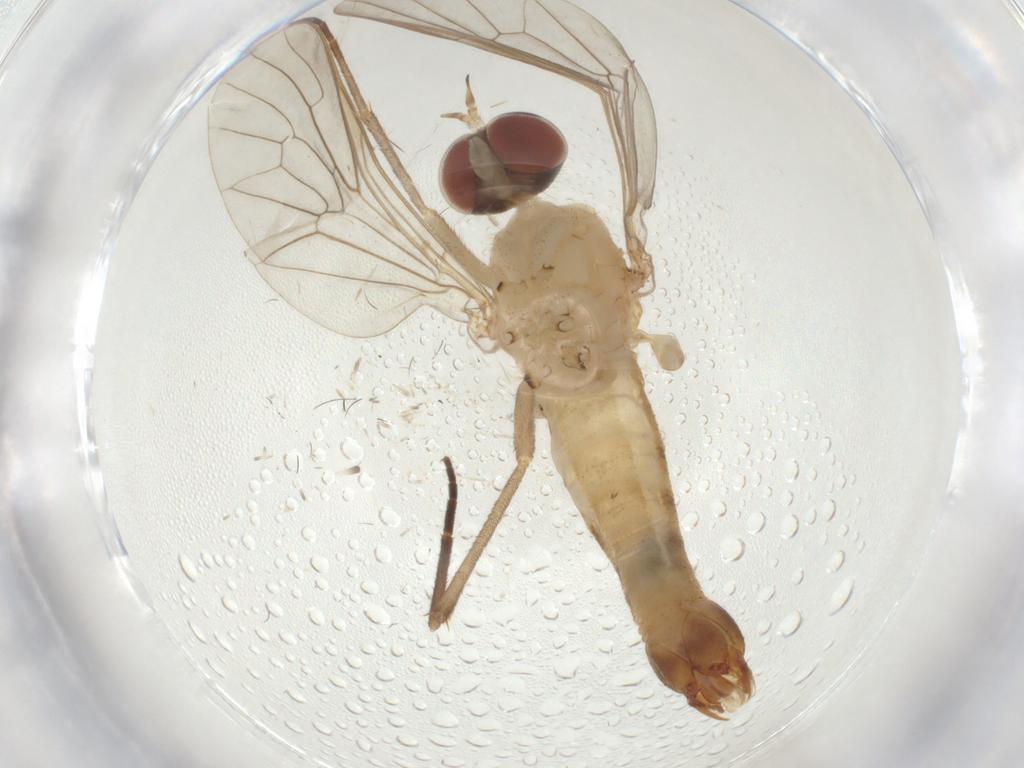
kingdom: Animalia
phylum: Arthropoda
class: Insecta
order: Diptera
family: Apsilocephalidae
